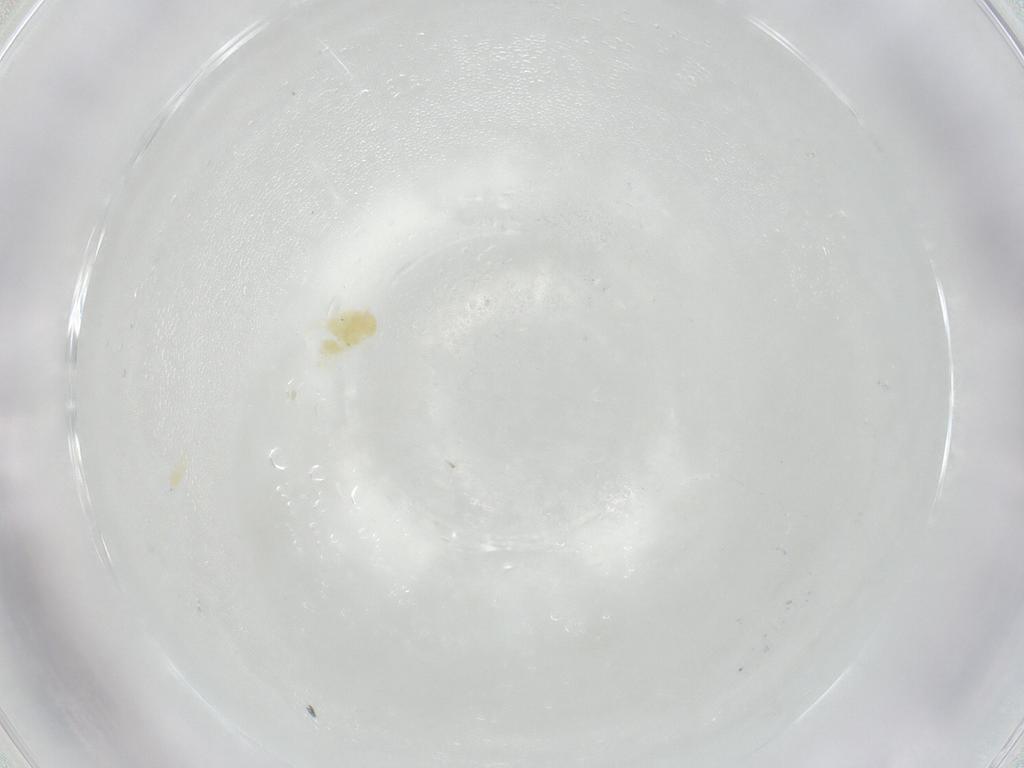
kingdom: Animalia
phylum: Arthropoda
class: Arachnida
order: Trombidiformes
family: Tetranychidae
